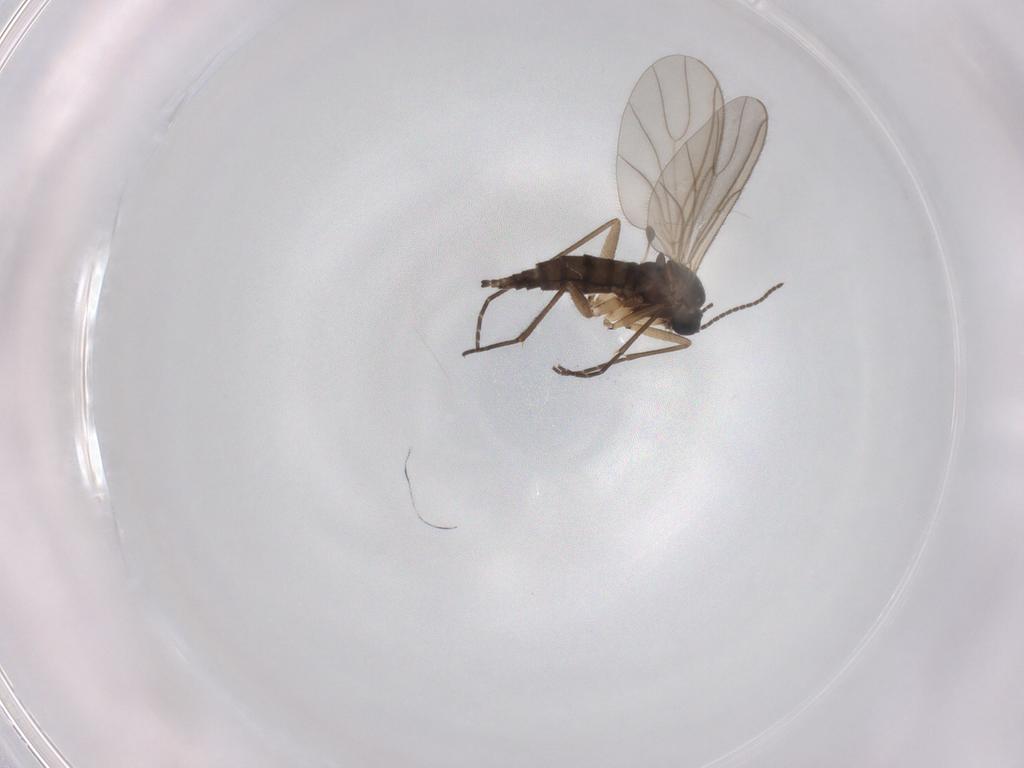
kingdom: Animalia
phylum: Arthropoda
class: Insecta
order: Diptera
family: Sciaridae
